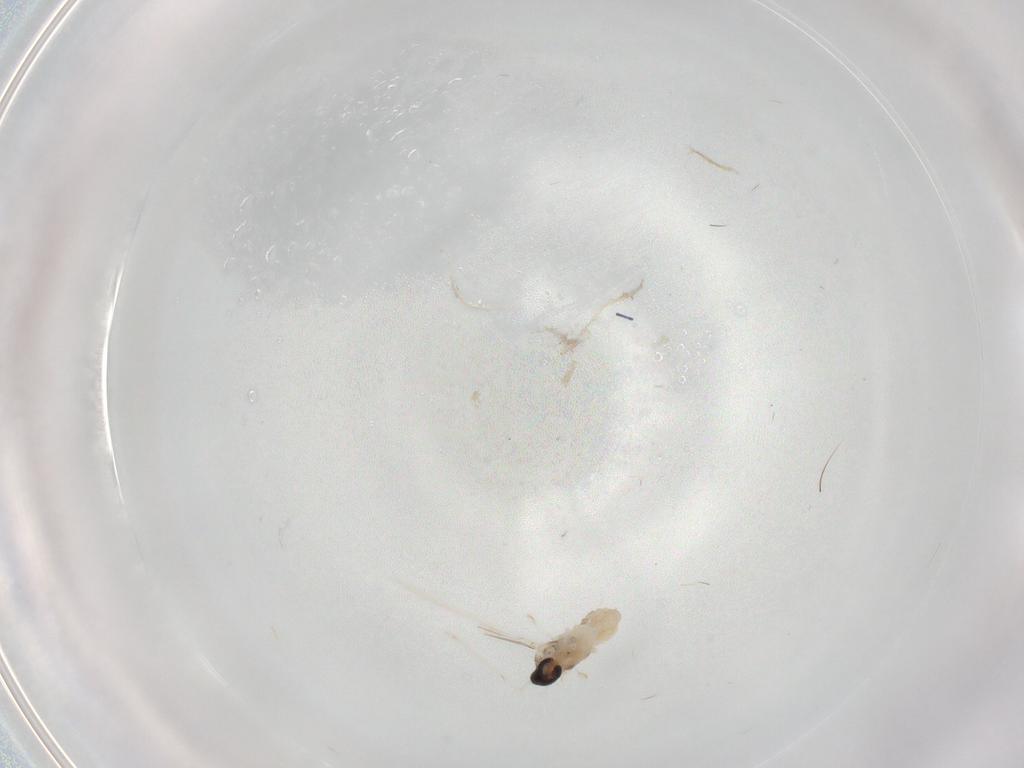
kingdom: Animalia
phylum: Arthropoda
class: Insecta
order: Diptera
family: Cecidomyiidae
